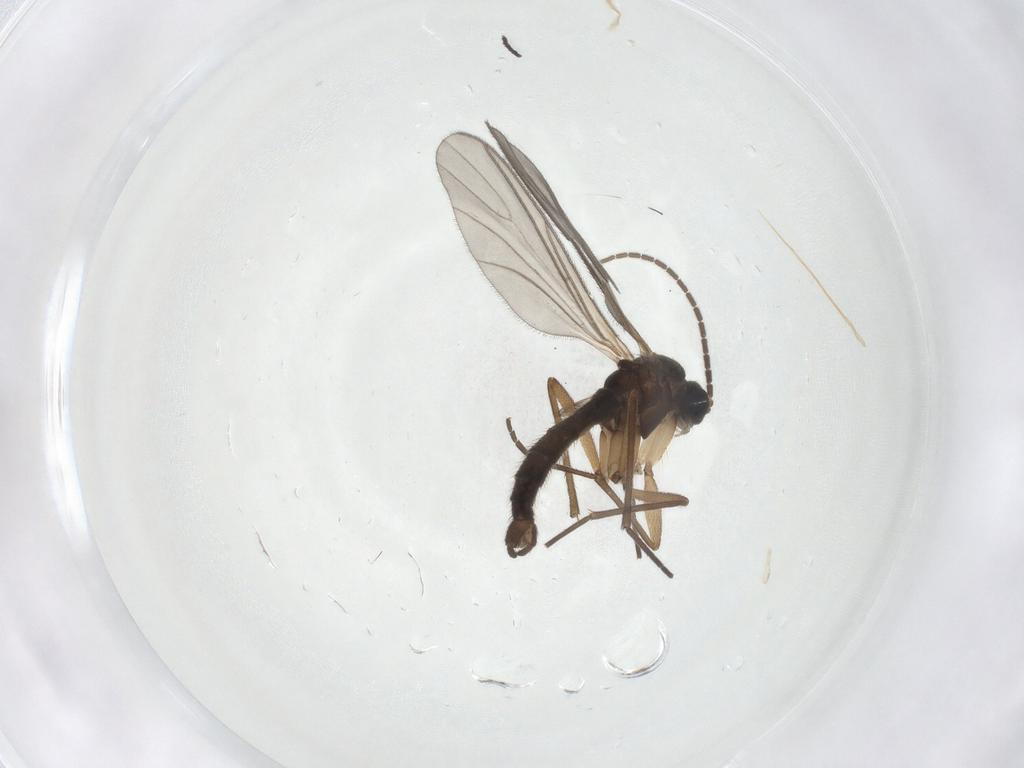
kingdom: Animalia
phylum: Arthropoda
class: Insecta
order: Diptera
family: Sciaridae
